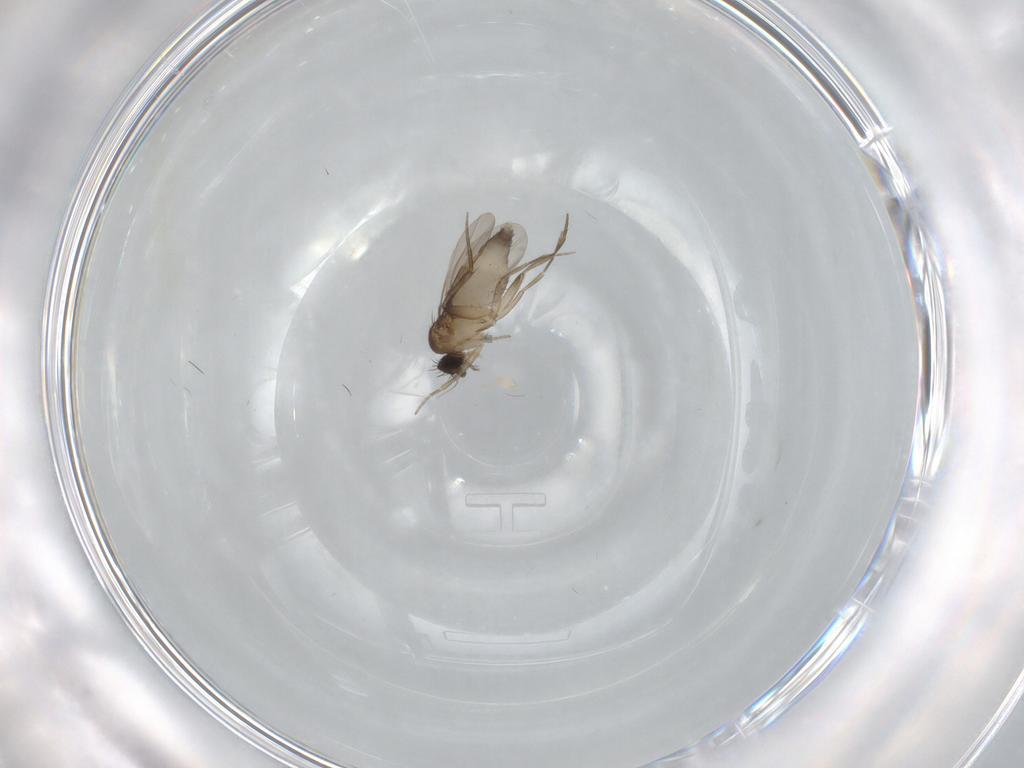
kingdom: Animalia
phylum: Arthropoda
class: Insecta
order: Diptera
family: Phoridae
